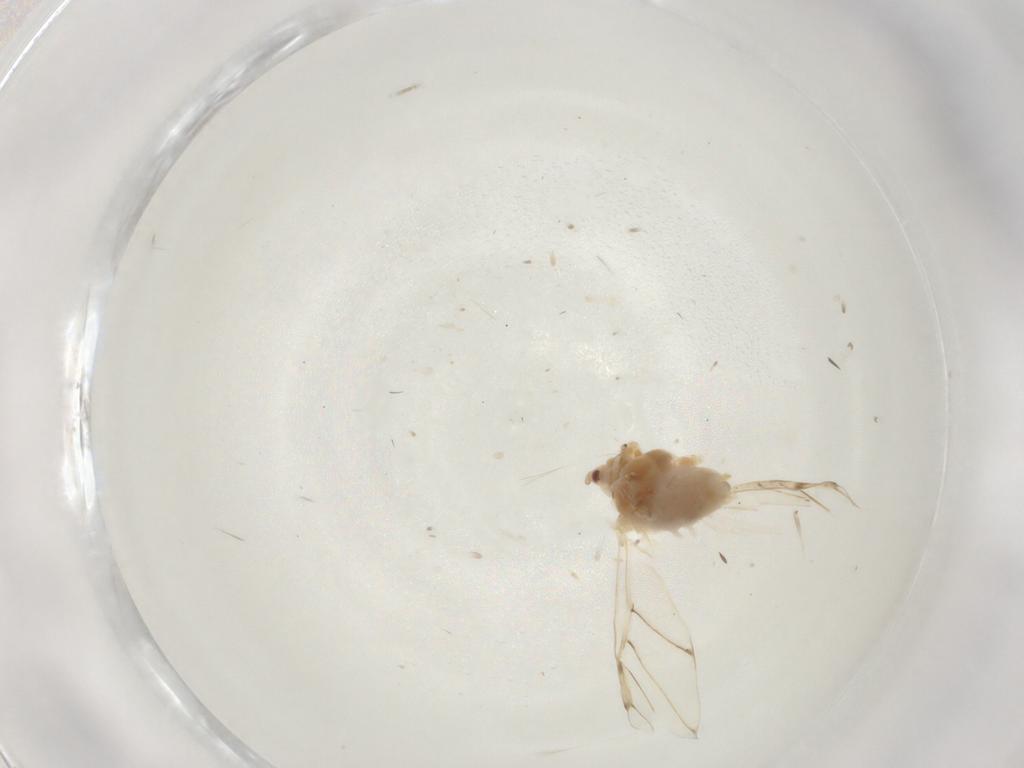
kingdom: Animalia
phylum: Arthropoda
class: Insecta
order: Hemiptera
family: Aphididae
